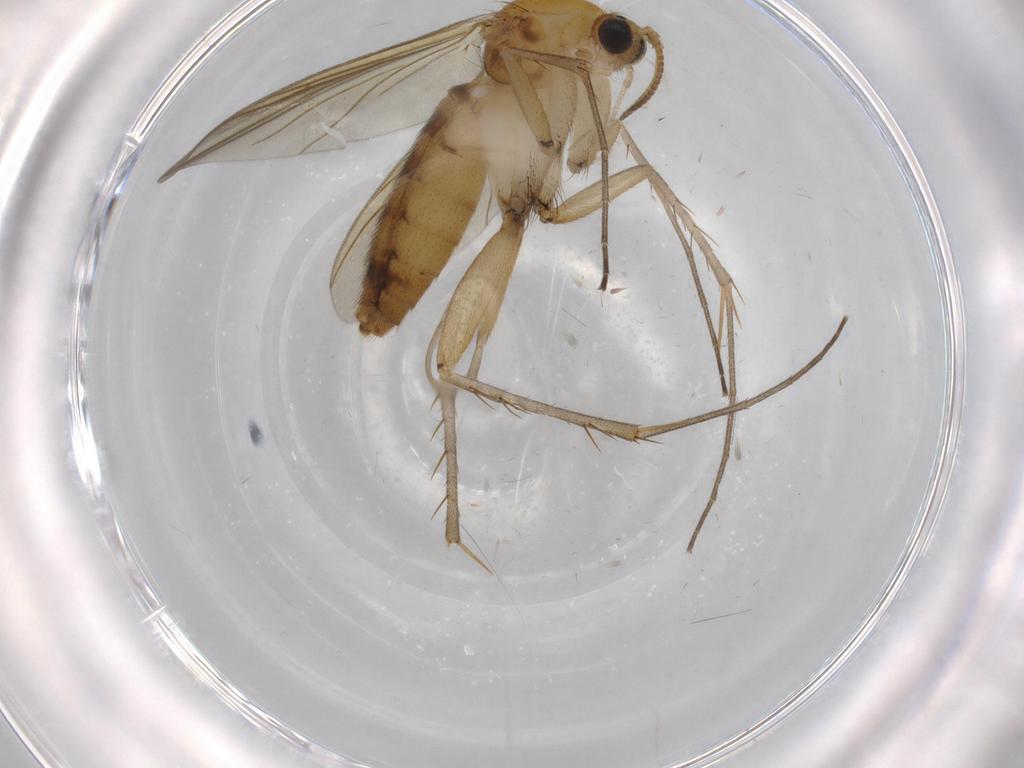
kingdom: Animalia
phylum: Arthropoda
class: Insecta
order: Diptera
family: Mycetophilidae
